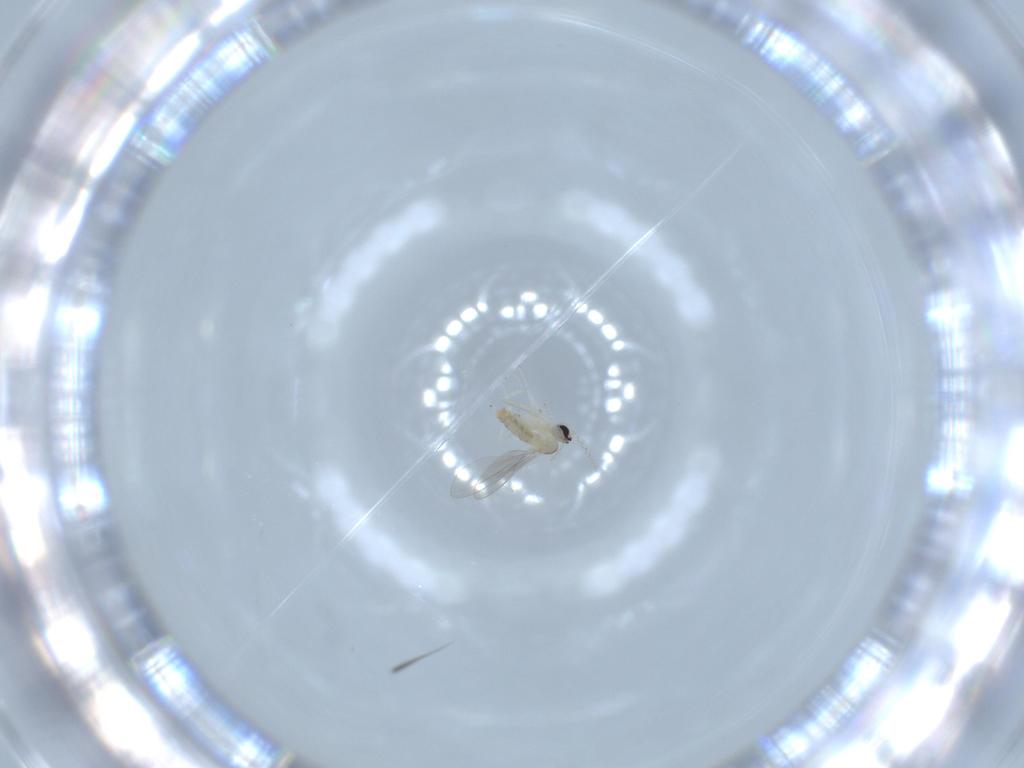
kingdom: Animalia
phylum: Arthropoda
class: Insecta
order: Diptera
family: Cecidomyiidae
